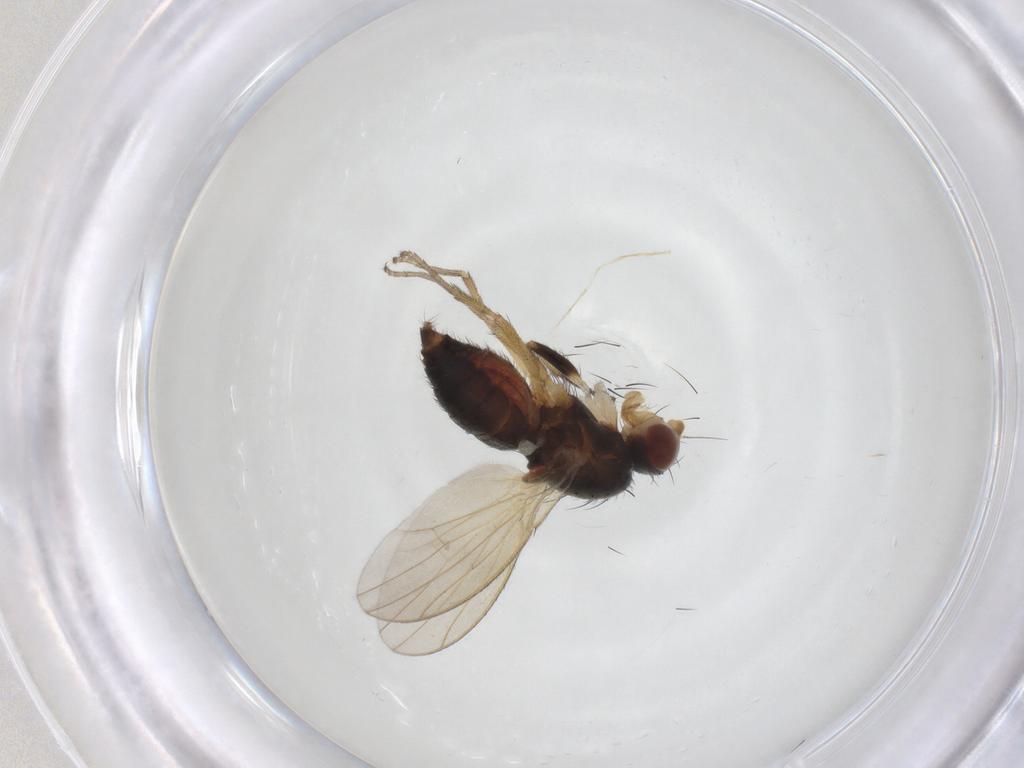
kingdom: Animalia
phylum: Arthropoda
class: Insecta
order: Diptera
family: Heleomyzidae
